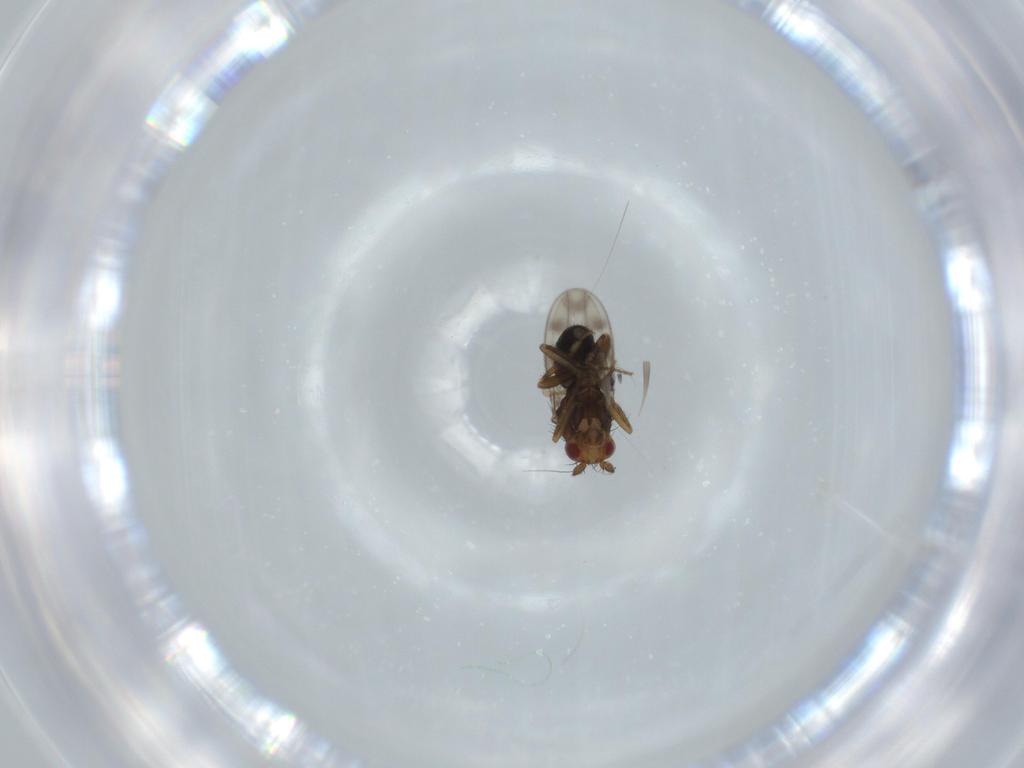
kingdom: Animalia
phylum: Arthropoda
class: Insecta
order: Diptera
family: Sphaeroceridae
